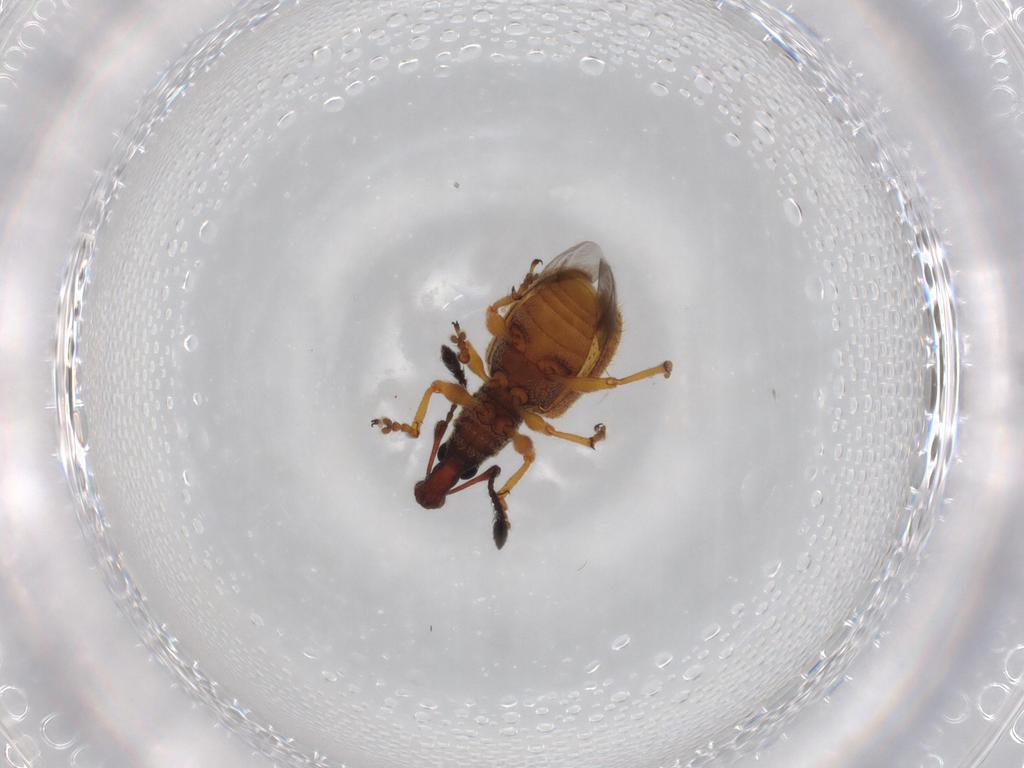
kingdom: Animalia
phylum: Arthropoda
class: Insecta
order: Coleoptera
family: Curculionidae
